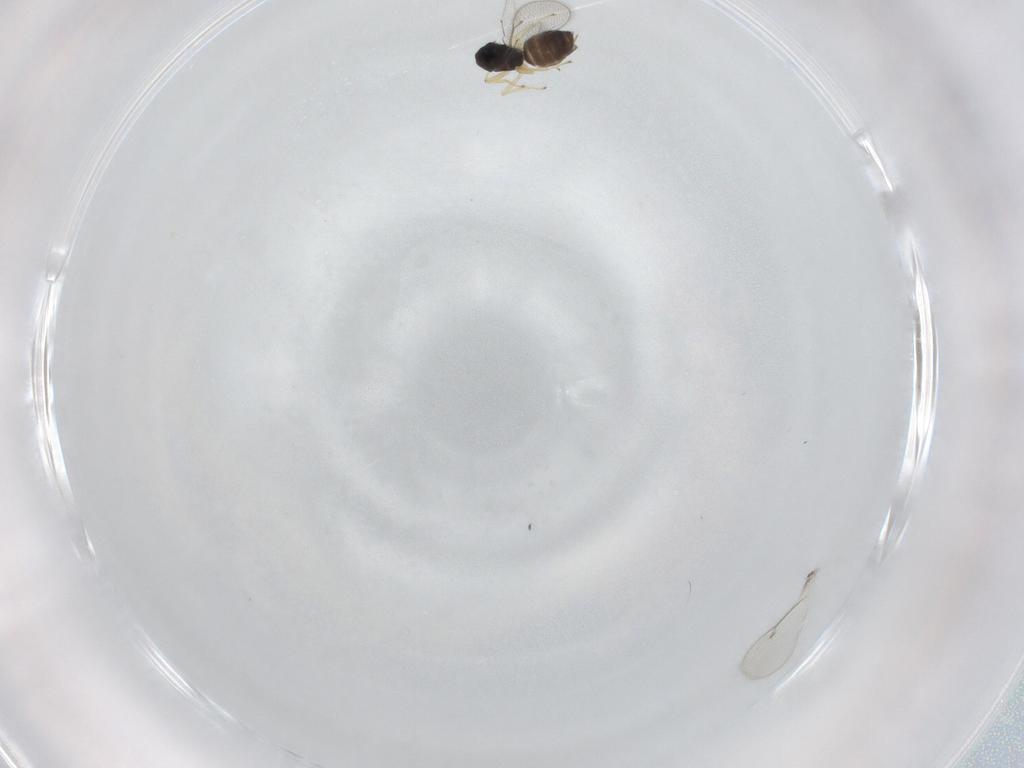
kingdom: Animalia
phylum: Arthropoda
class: Insecta
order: Hymenoptera
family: Eulophidae
